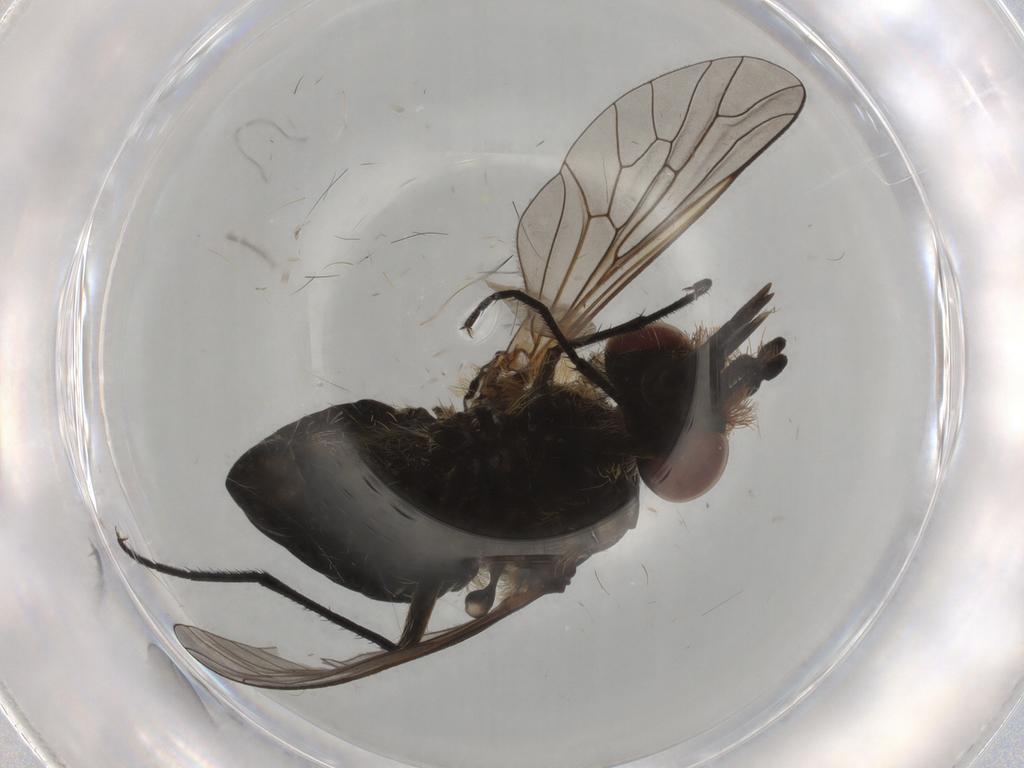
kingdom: Animalia
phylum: Arthropoda
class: Insecta
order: Diptera
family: Bombyliidae
